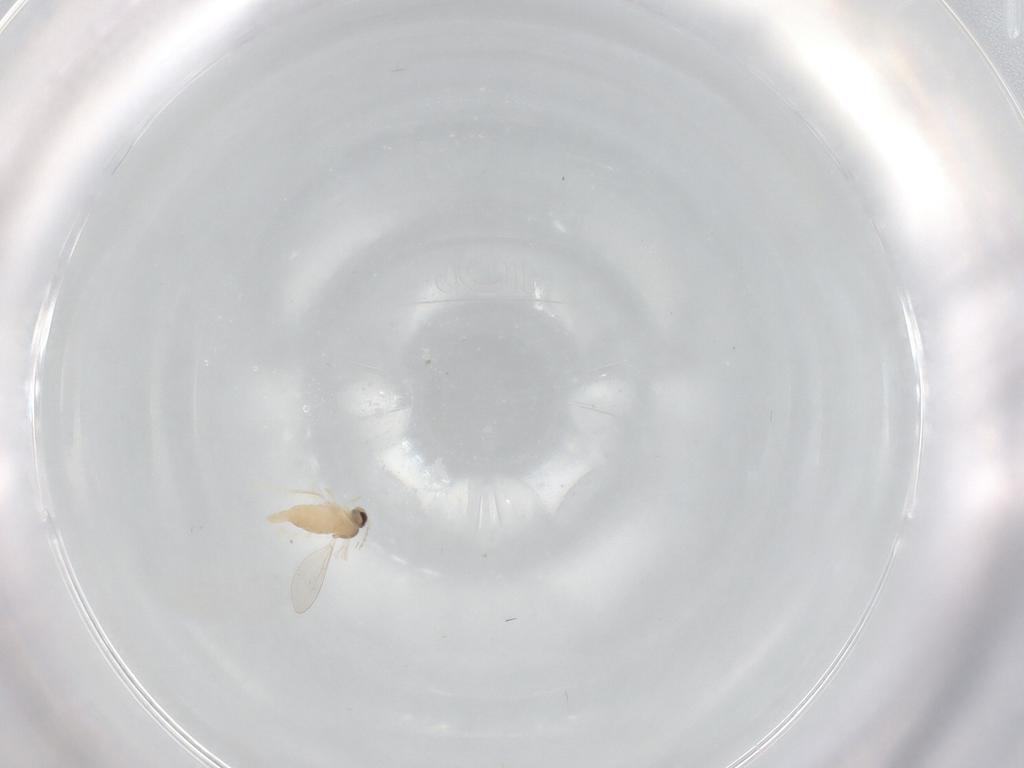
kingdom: Animalia
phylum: Arthropoda
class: Insecta
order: Diptera
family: Cecidomyiidae
